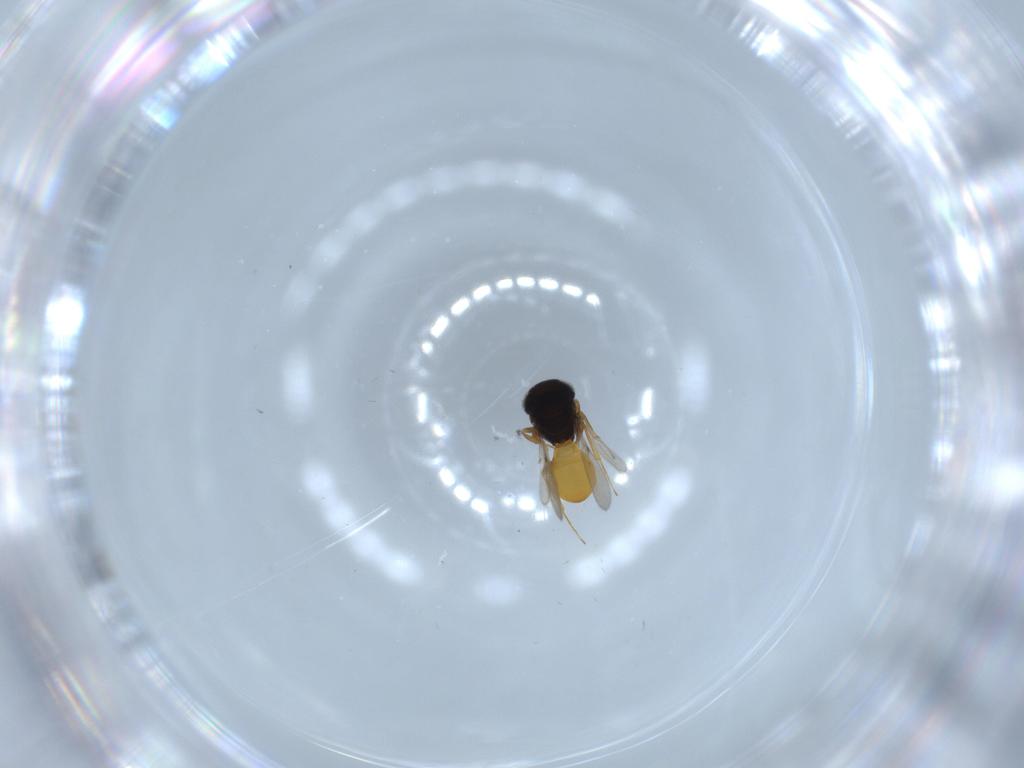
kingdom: Animalia
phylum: Arthropoda
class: Insecta
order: Hymenoptera
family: Scelionidae
